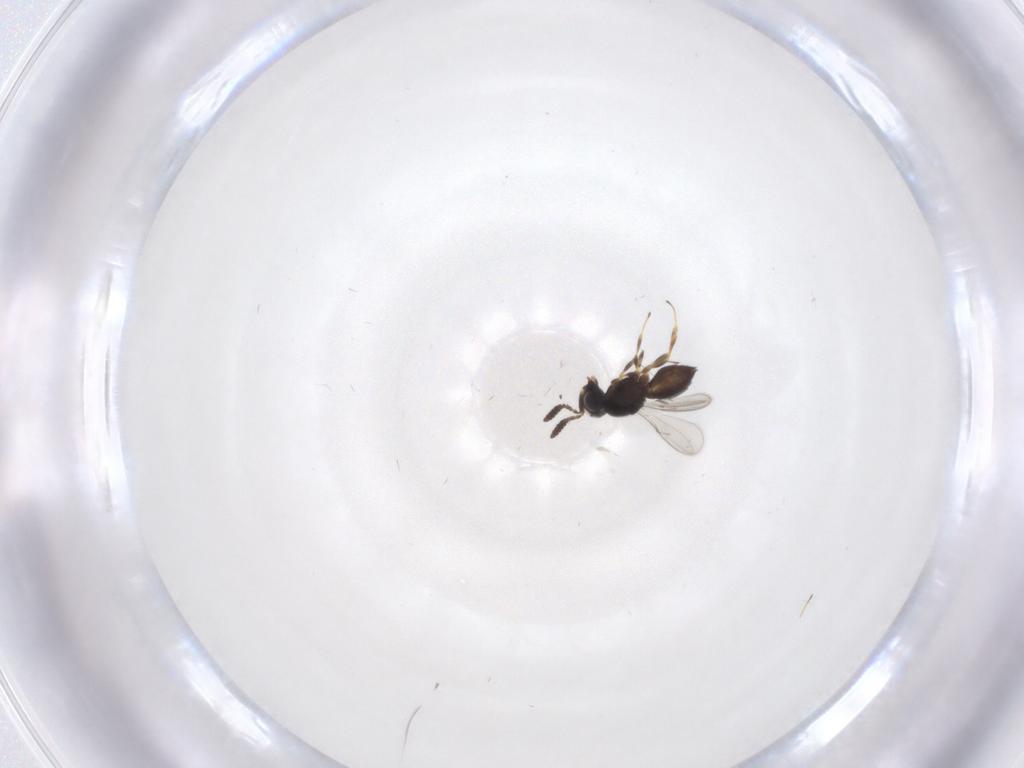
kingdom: Animalia
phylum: Arthropoda
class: Insecta
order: Hymenoptera
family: Scelionidae
